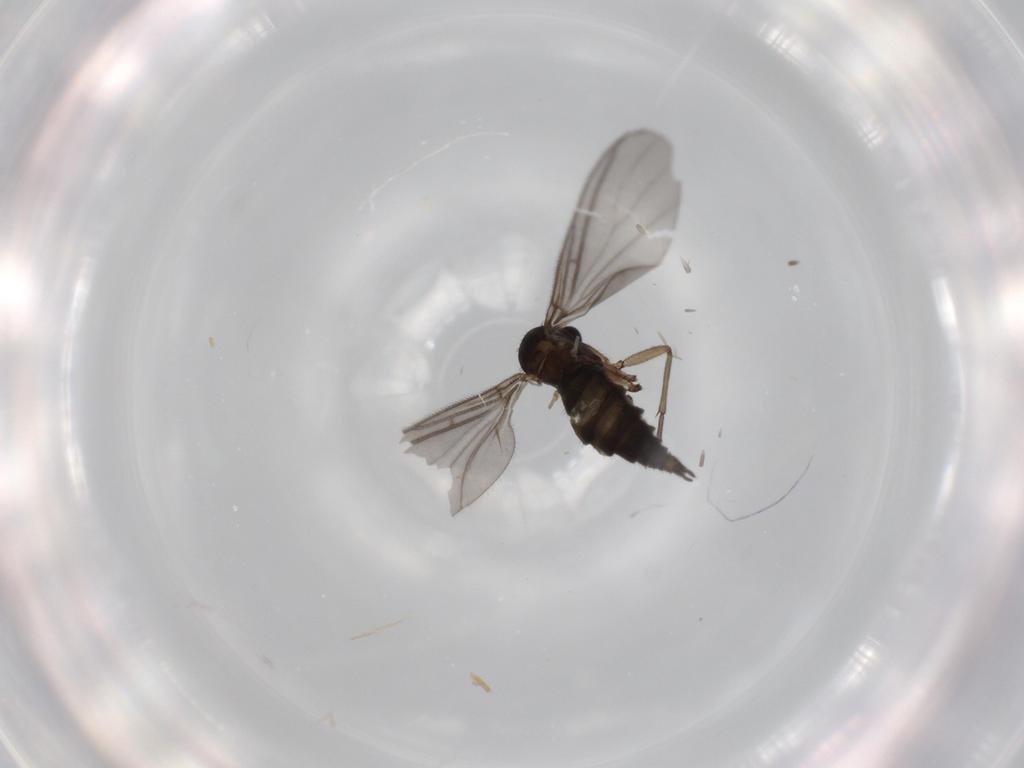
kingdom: Animalia
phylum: Arthropoda
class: Insecta
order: Diptera
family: Sciaridae
